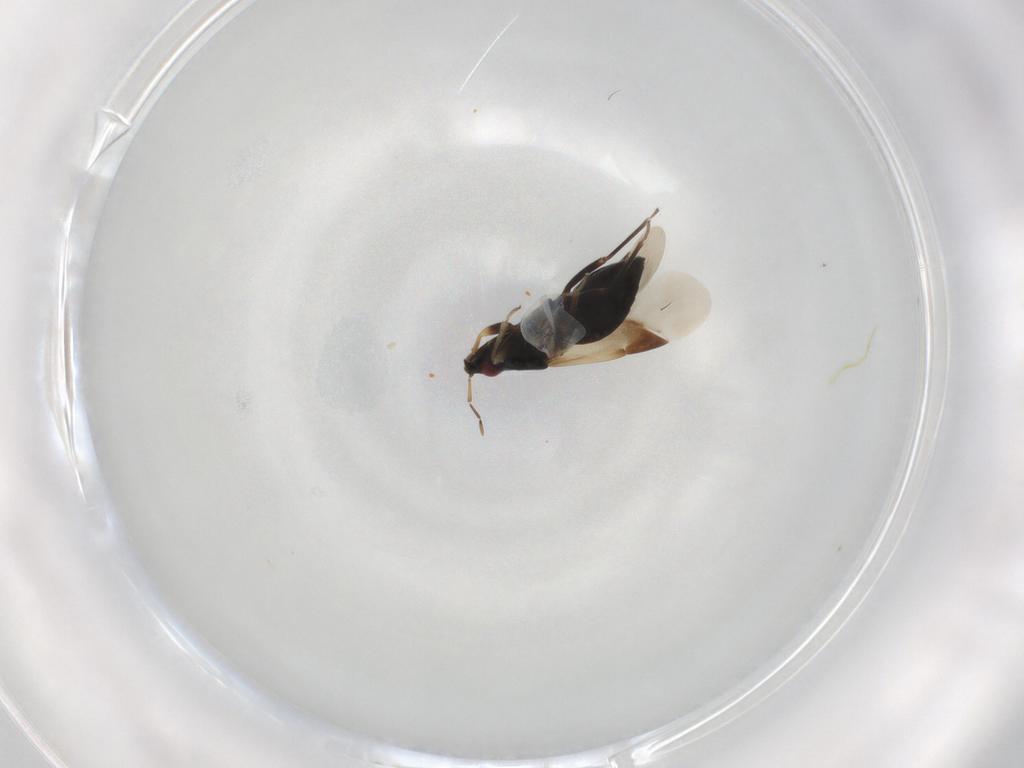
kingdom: Animalia
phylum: Arthropoda
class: Insecta
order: Hemiptera
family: Anthocoridae
